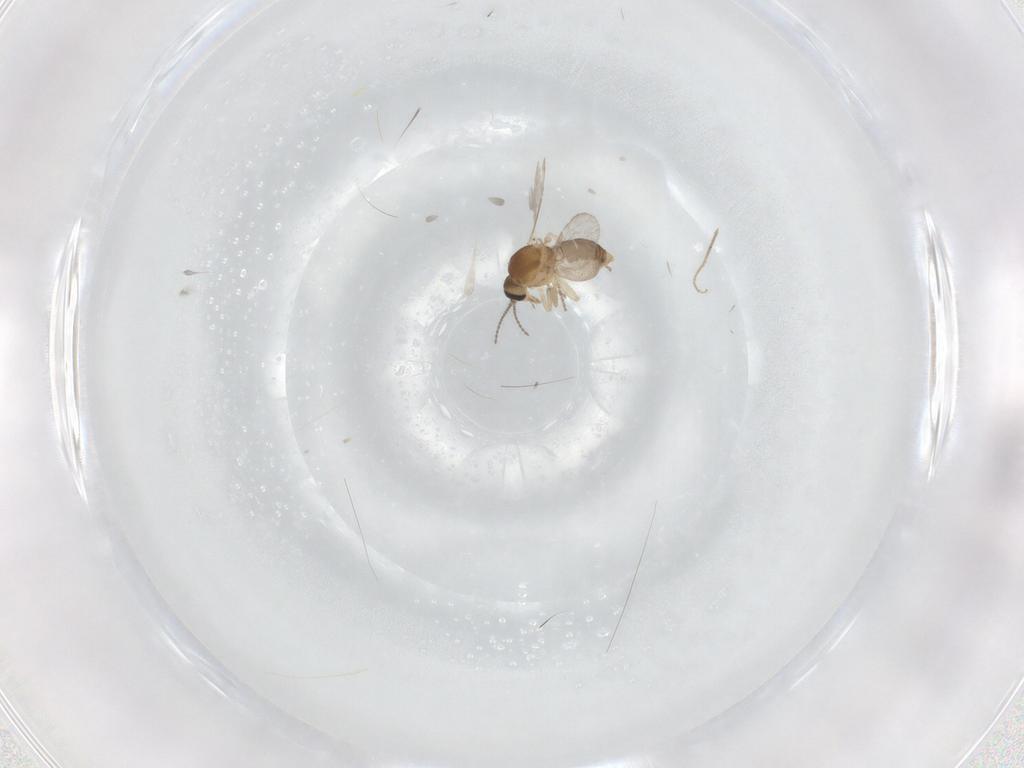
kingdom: Animalia
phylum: Arthropoda
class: Insecta
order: Diptera
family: Ceratopogonidae
